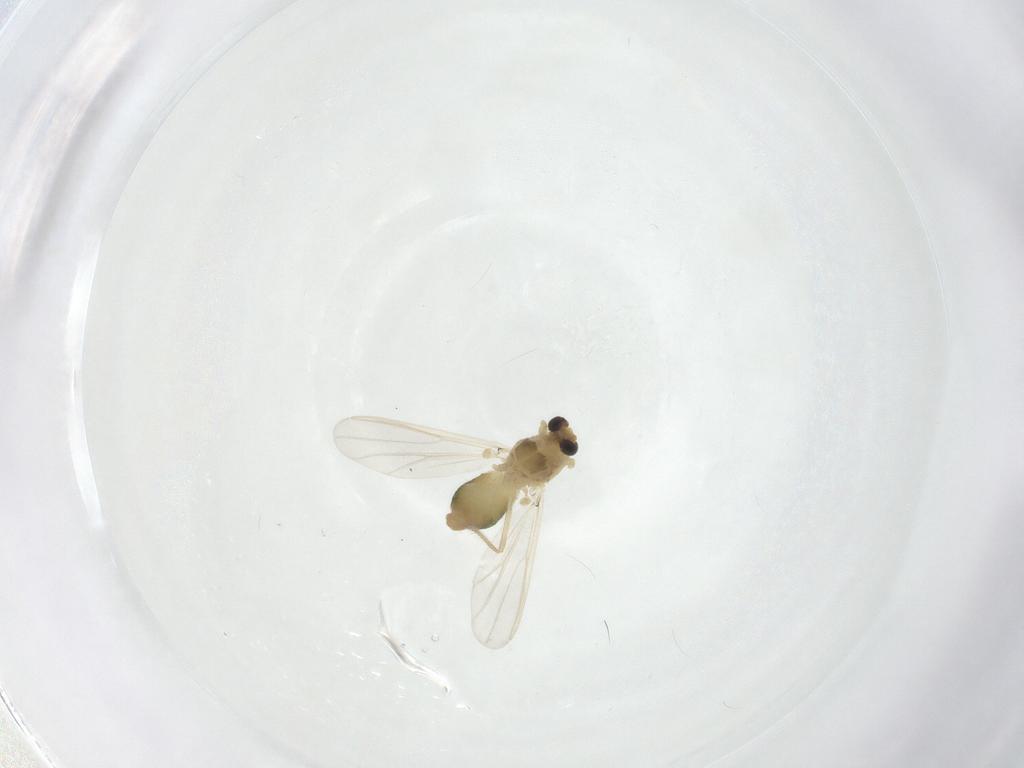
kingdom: Animalia
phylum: Arthropoda
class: Insecta
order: Diptera
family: Chironomidae
